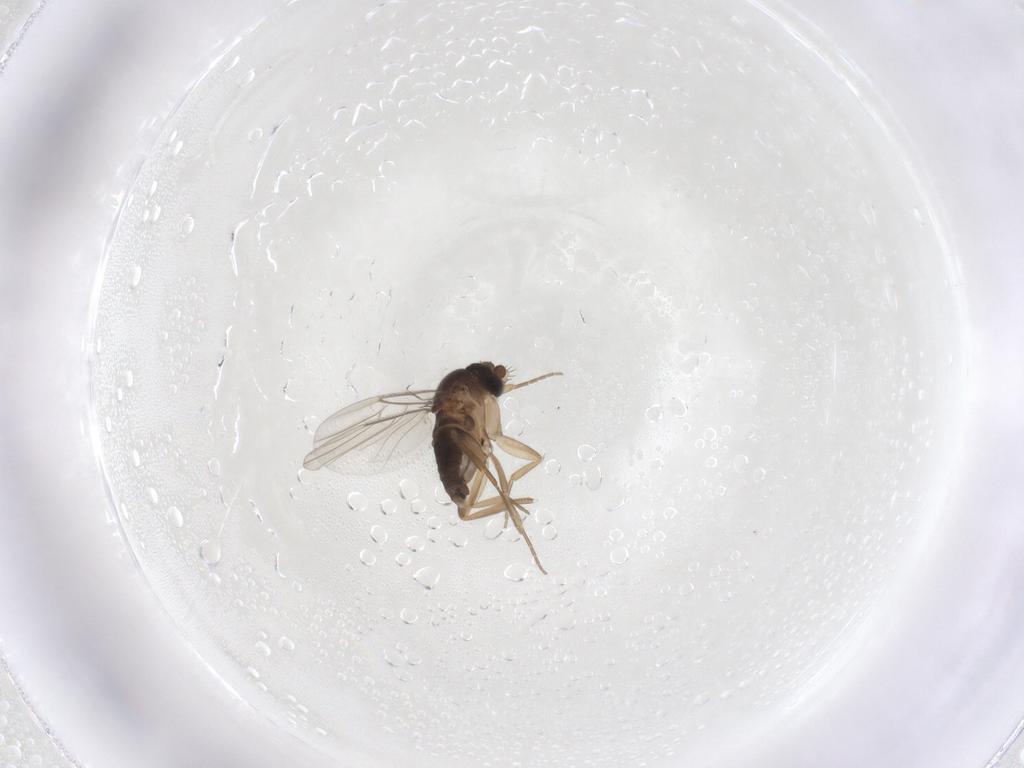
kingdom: Animalia
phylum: Arthropoda
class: Insecta
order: Diptera
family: Phoridae
